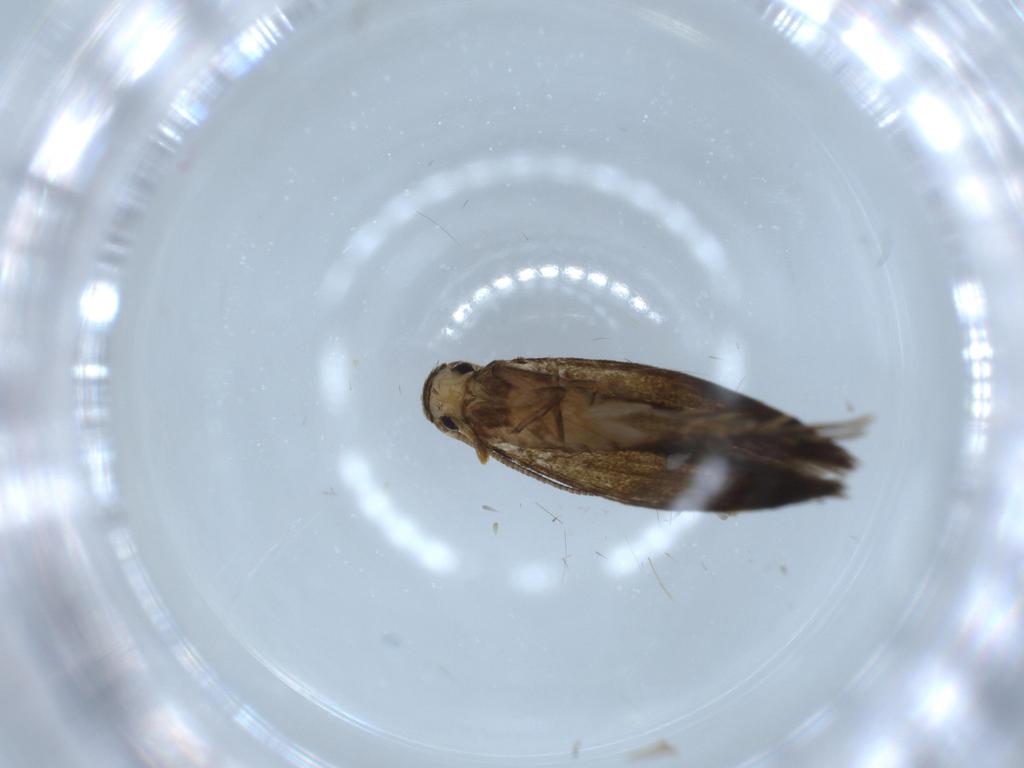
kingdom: Animalia
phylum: Arthropoda
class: Insecta
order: Lepidoptera
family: Tineidae
